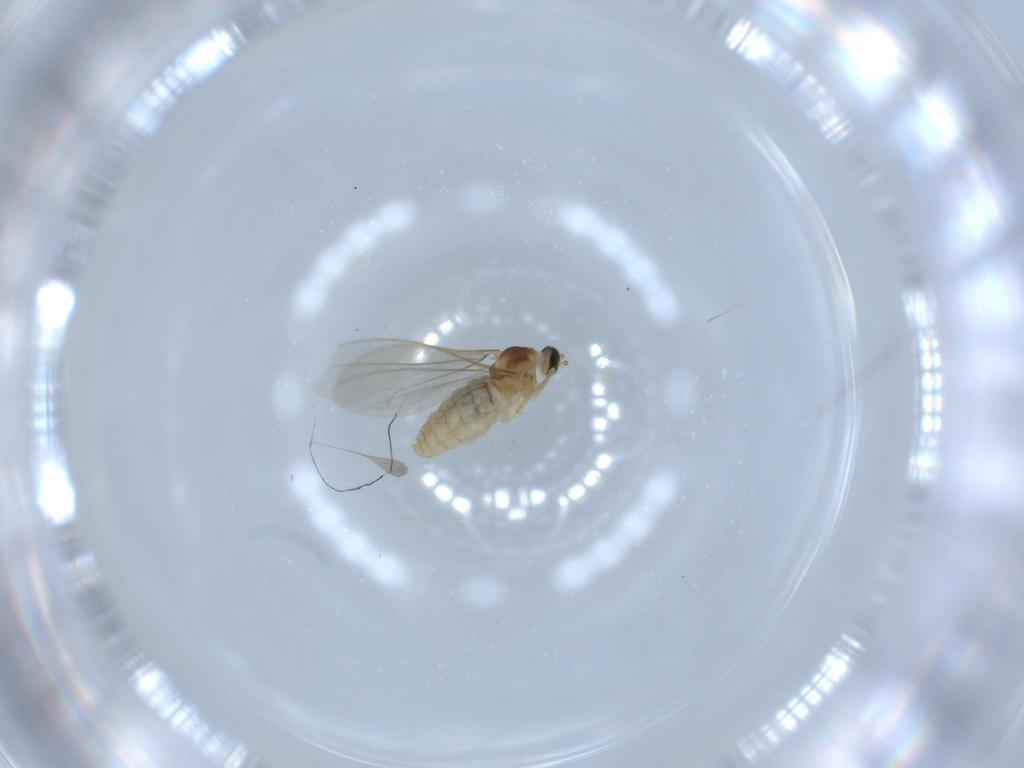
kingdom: Animalia
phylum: Arthropoda
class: Insecta
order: Diptera
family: Cecidomyiidae
